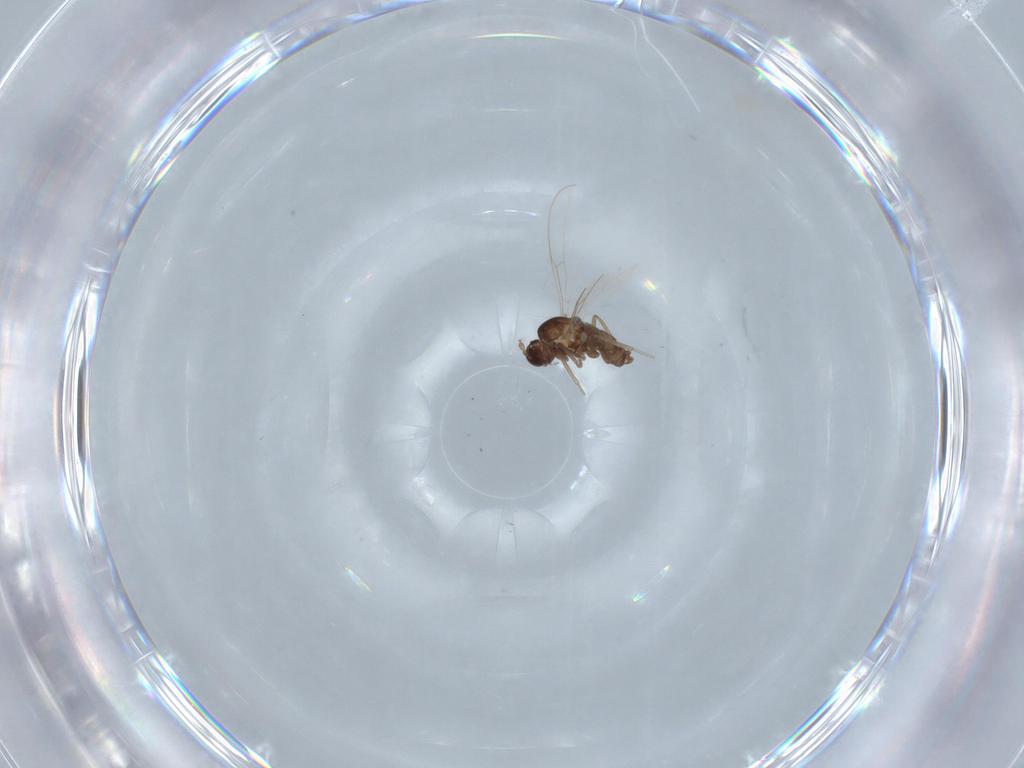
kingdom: Animalia
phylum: Arthropoda
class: Insecta
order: Diptera
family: Cecidomyiidae
